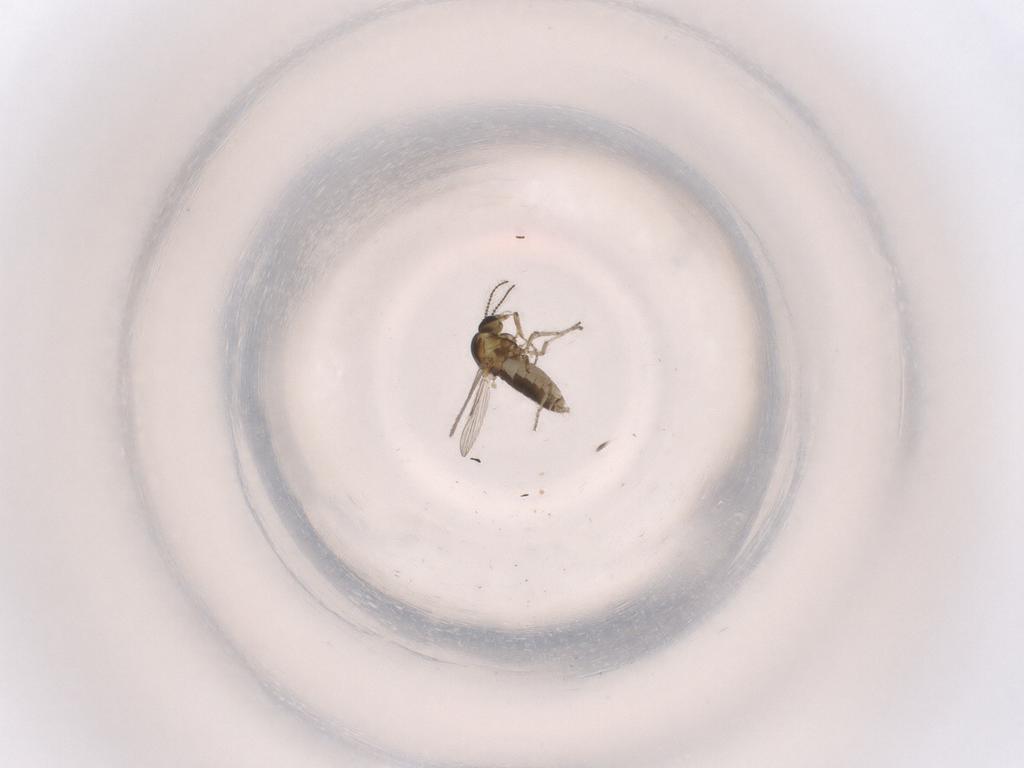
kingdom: Animalia
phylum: Arthropoda
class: Insecta
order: Diptera
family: Ceratopogonidae
